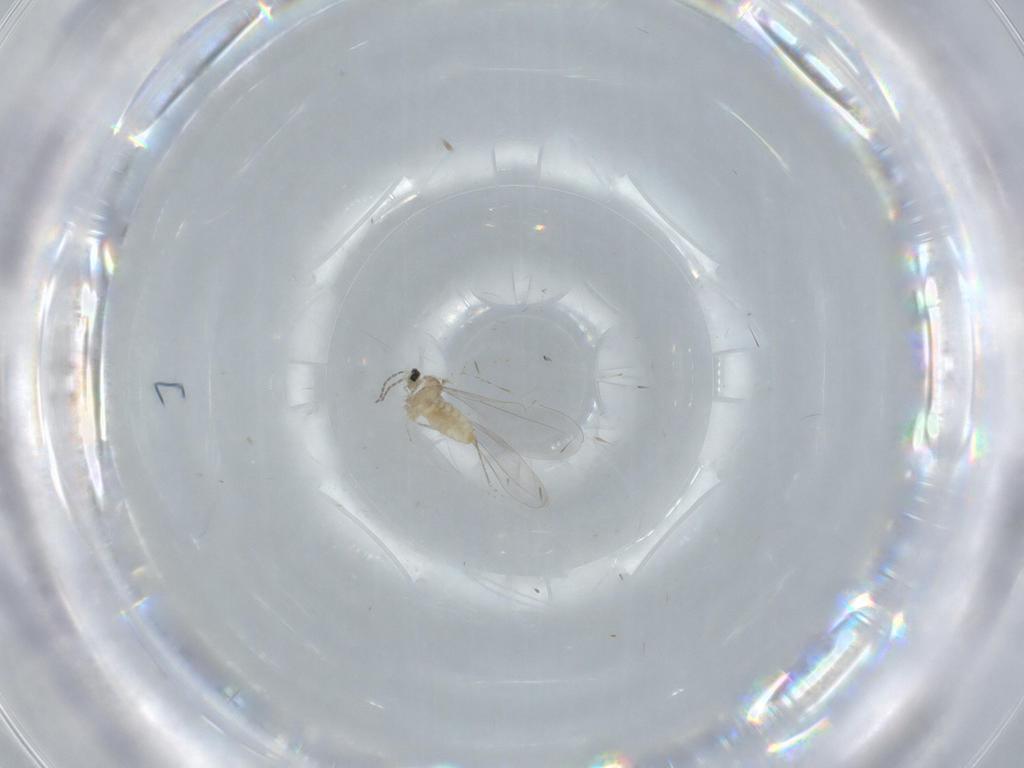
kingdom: Animalia
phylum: Arthropoda
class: Insecta
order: Diptera
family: Cecidomyiidae
